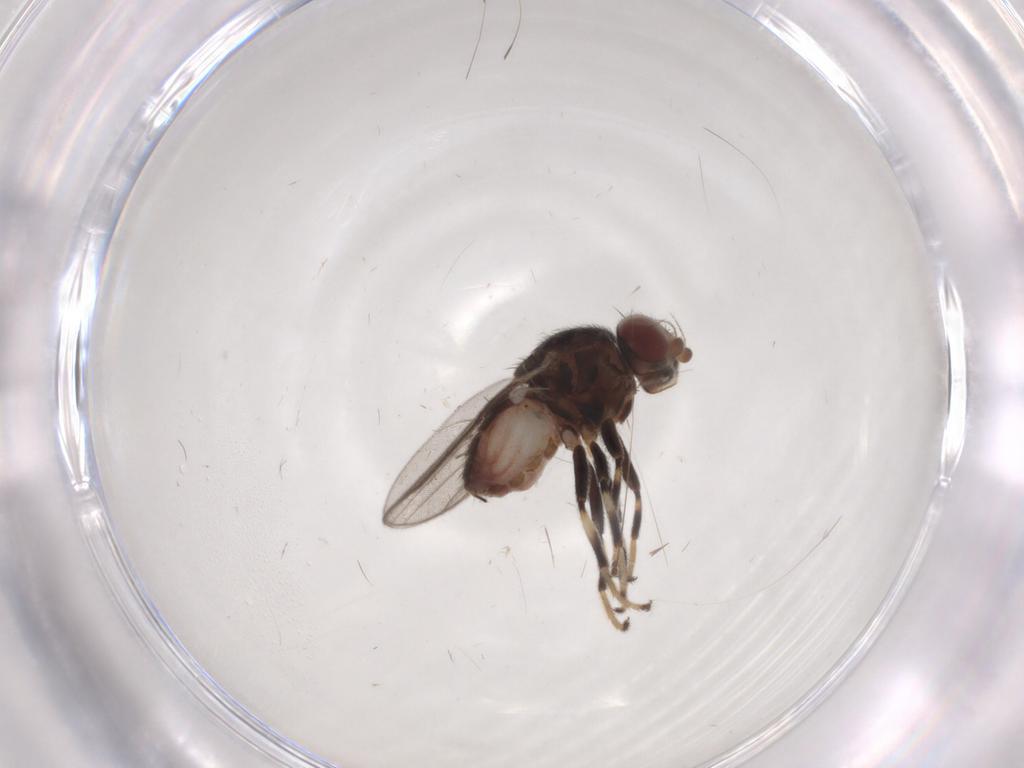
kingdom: Animalia
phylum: Arthropoda
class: Insecta
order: Diptera
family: Chloropidae
